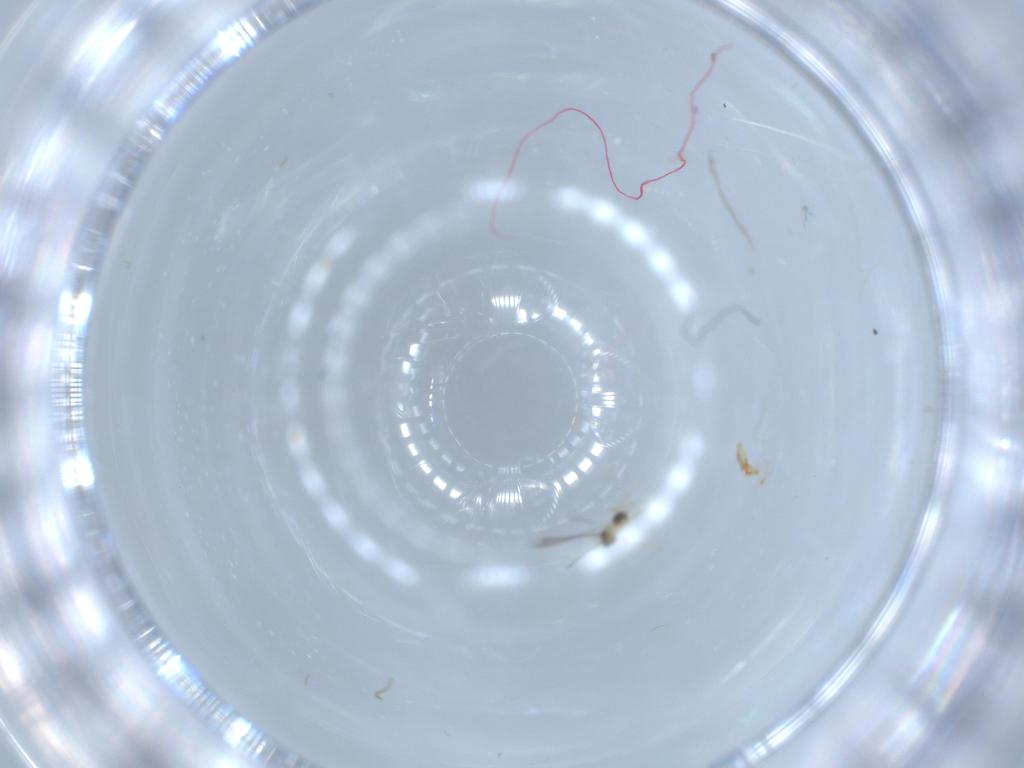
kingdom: Animalia
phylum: Arthropoda
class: Insecta
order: Hymenoptera
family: Mymaridae
